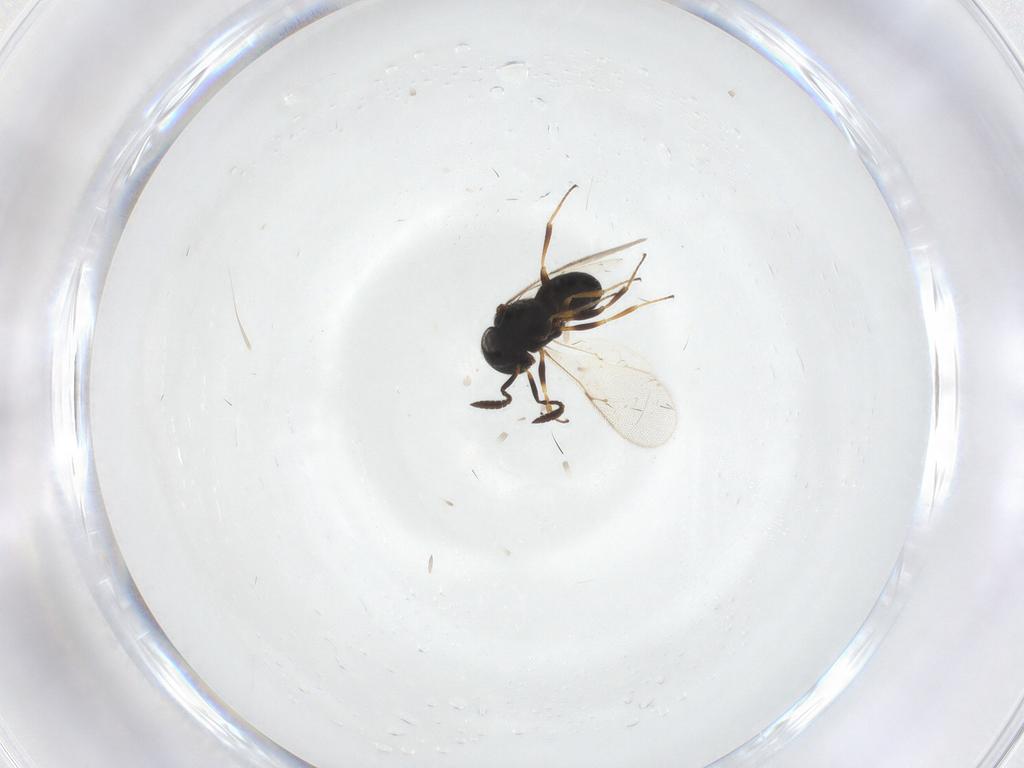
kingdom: Animalia
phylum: Arthropoda
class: Insecta
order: Hymenoptera
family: Scelionidae
